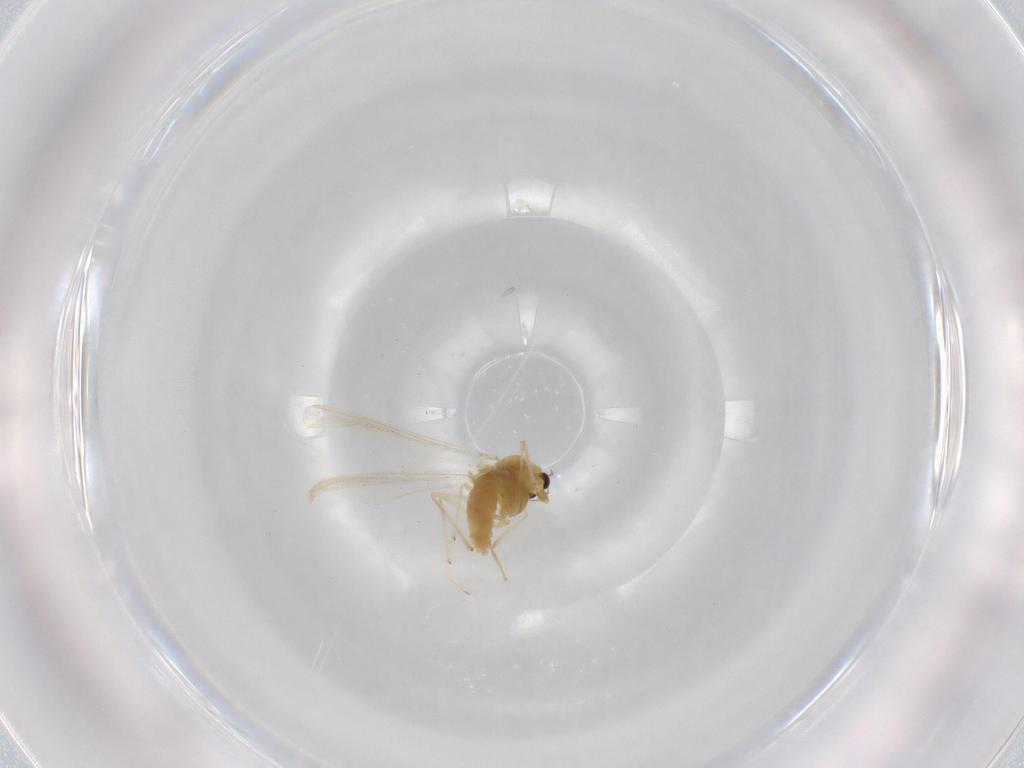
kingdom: Animalia
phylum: Arthropoda
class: Insecta
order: Diptera
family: Chironomidae
